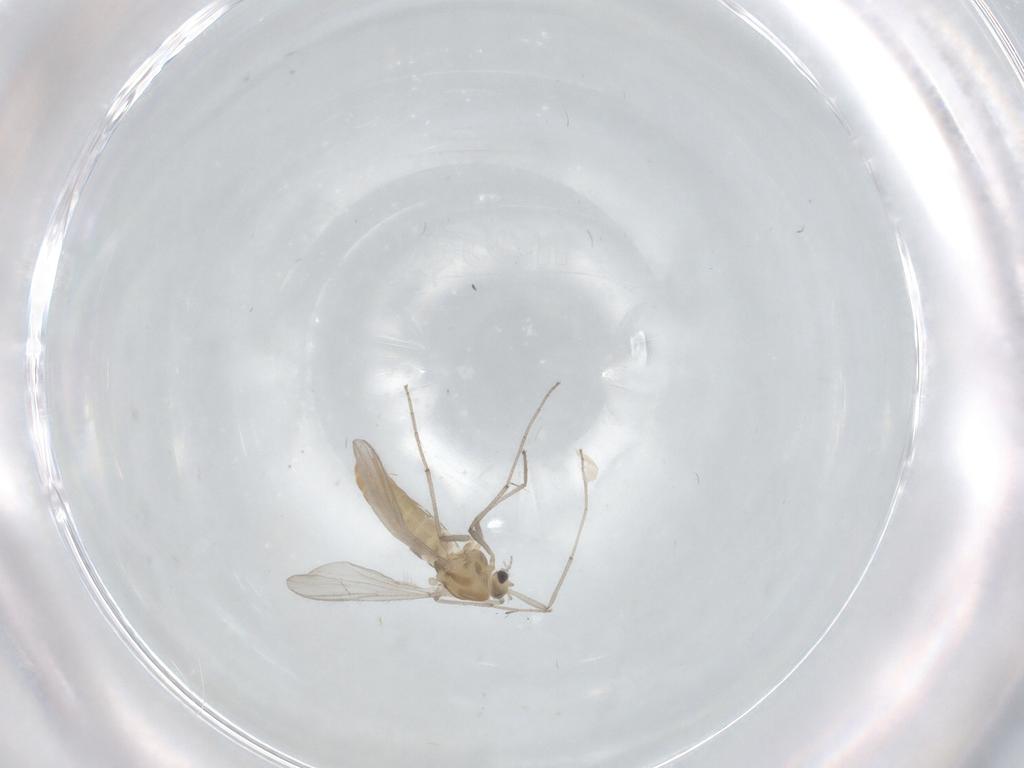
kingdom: Animalia
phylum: Arthropoda
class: Insecta
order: Diptera
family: Chironomidae
